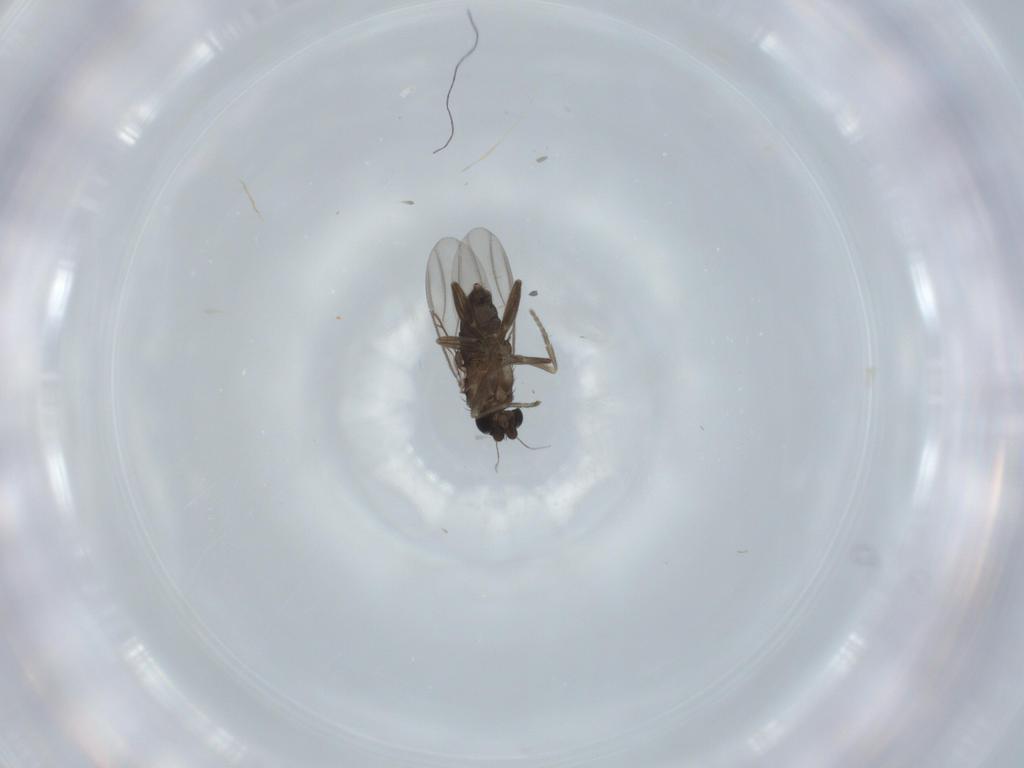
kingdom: Animalia
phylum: Arthropoda
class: Insecta
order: Diptera
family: Phoridae
